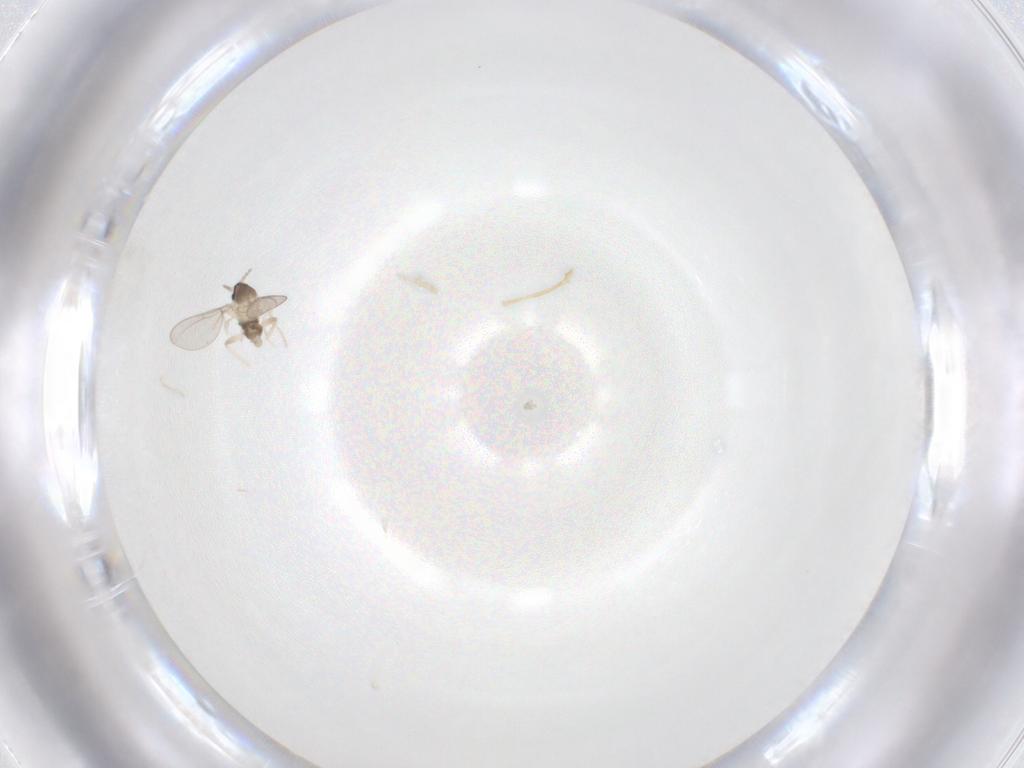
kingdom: Animalia
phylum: Arthropoda
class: Insecta
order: Diptera
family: Cecidomyiidae
